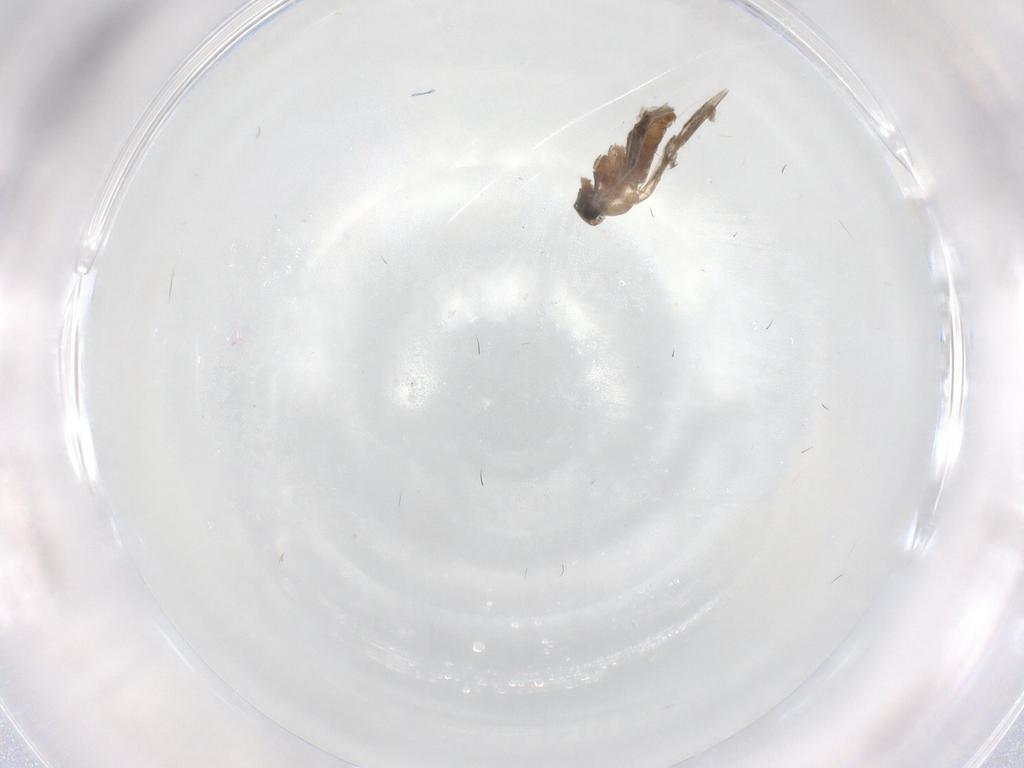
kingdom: Animalia
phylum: Arthropoda
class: Insecta
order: Diptera
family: Cecidomyiidae
